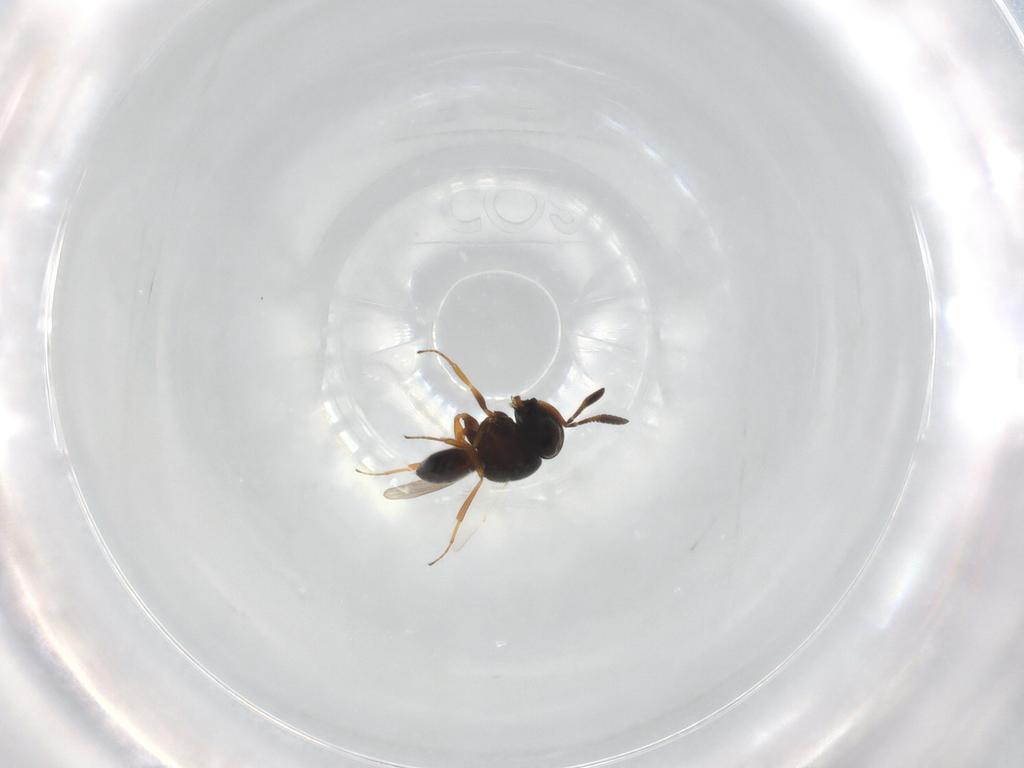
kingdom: Animalia
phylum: Arthropoda
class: Insecta
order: Hymenoptera
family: Scelionidae
